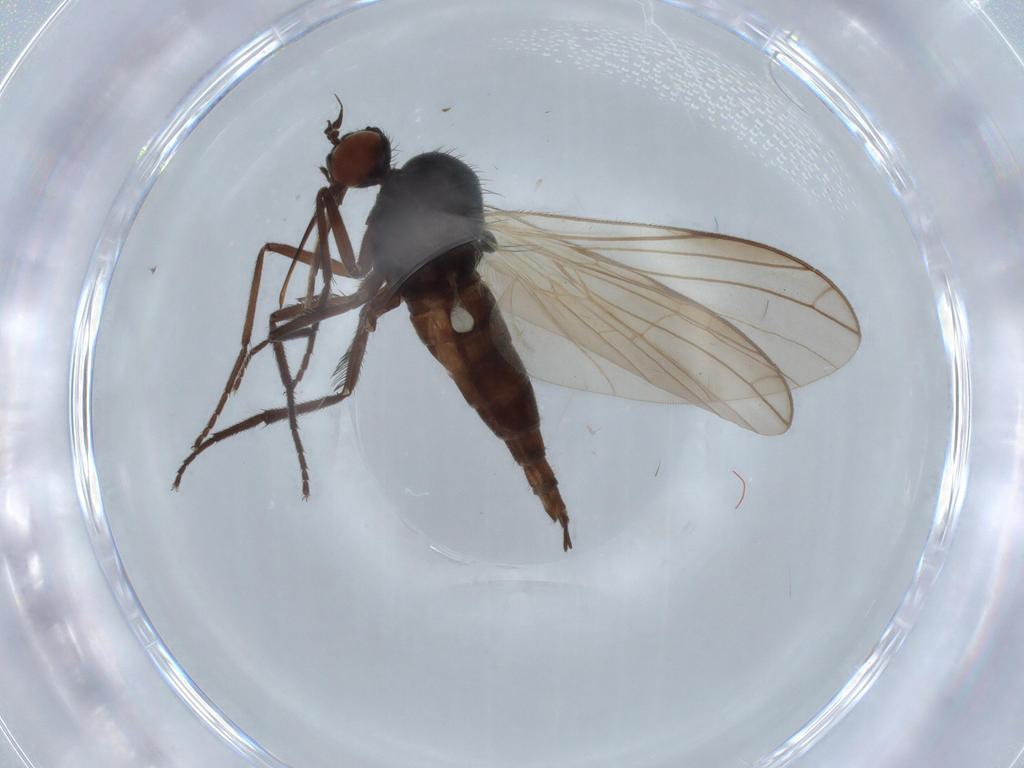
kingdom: Animalia
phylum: Arthropoda
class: Insecta
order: Diptera
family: Empididae
